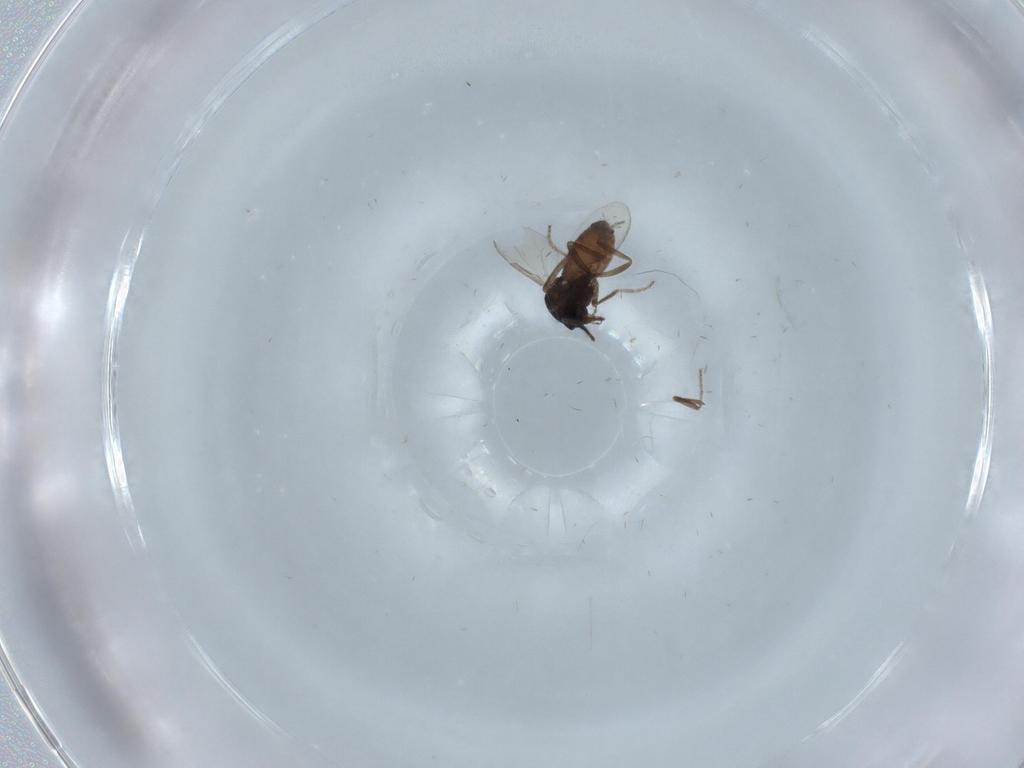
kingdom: Animalia
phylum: Arthropoda
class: Insecta
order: Diptera
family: Ceratopogonidae
